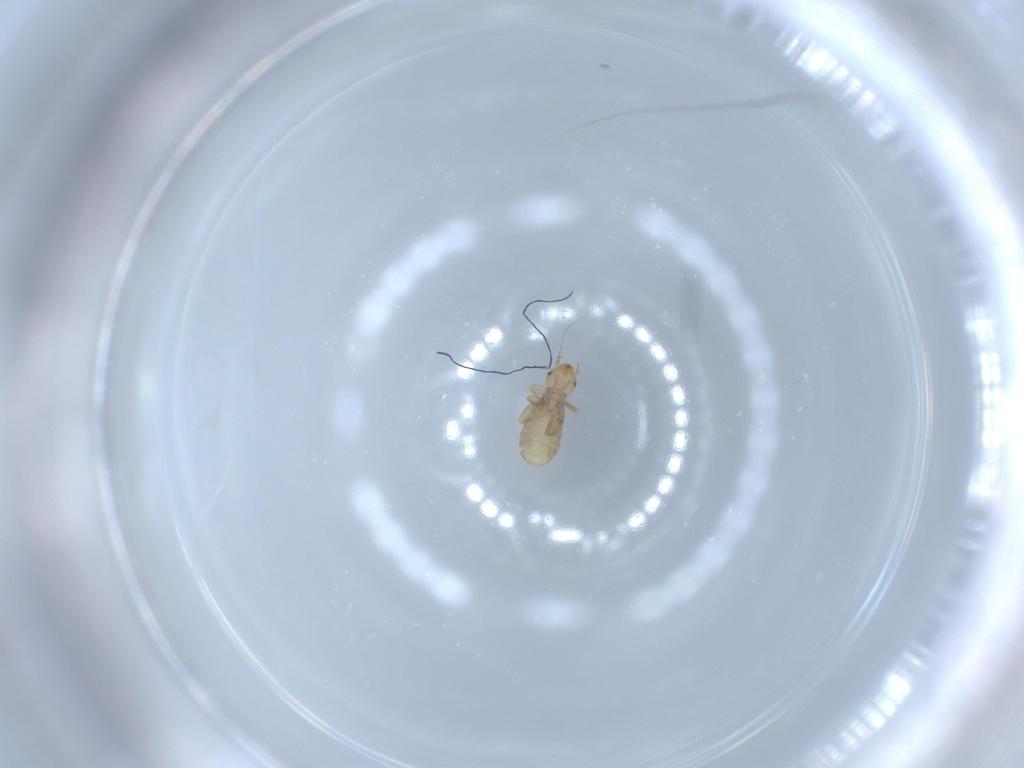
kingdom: Animalia
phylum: Arthropoda
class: Insecta
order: Psocodea
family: Liposcelididae
